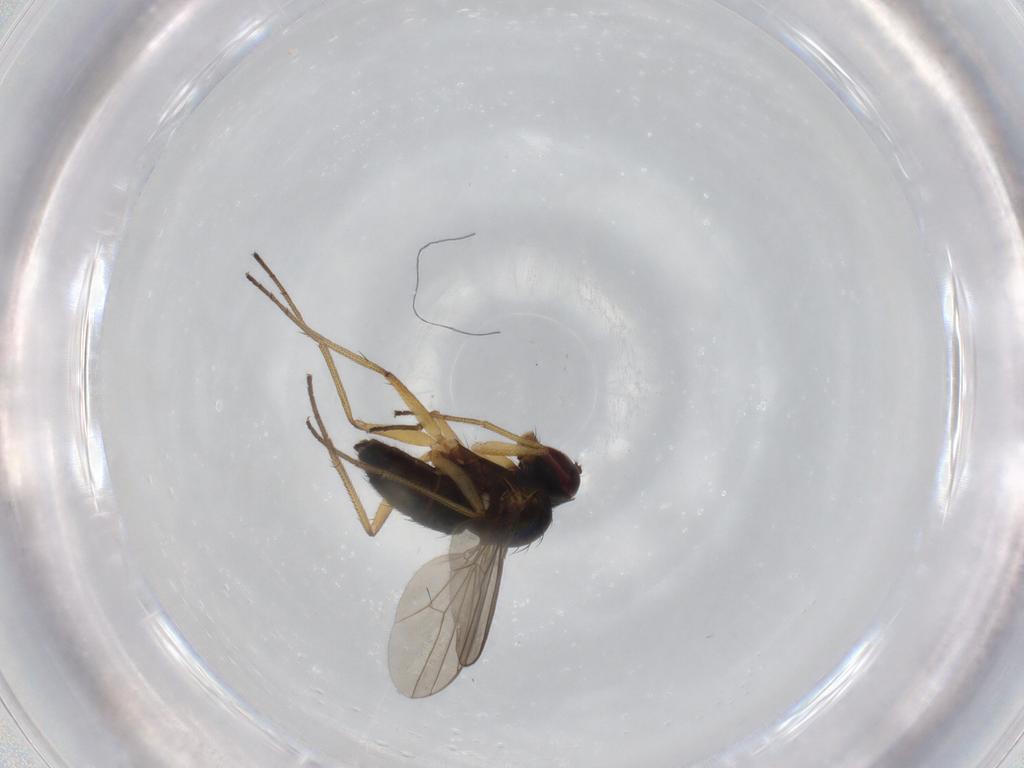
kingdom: Animalia
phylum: Arthropoda
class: Insecta
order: Diptera
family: Dolichopodidae
